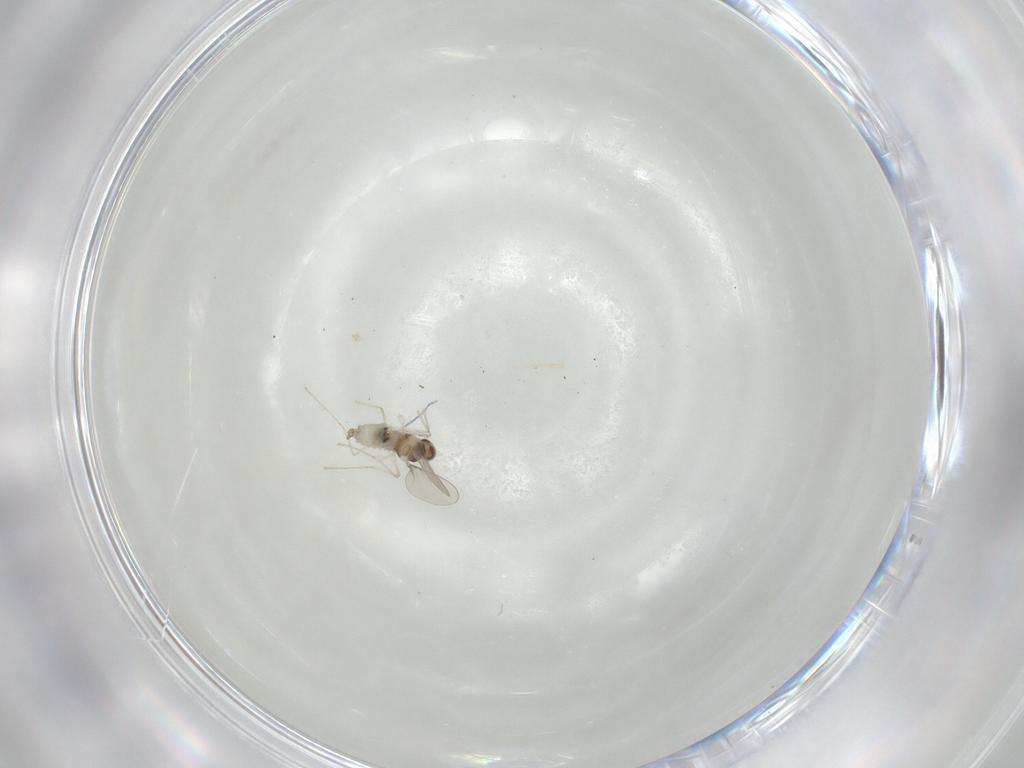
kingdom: Animalia
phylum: Arthropoda
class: Insecta
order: Diptera
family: Cecidomyiidae
